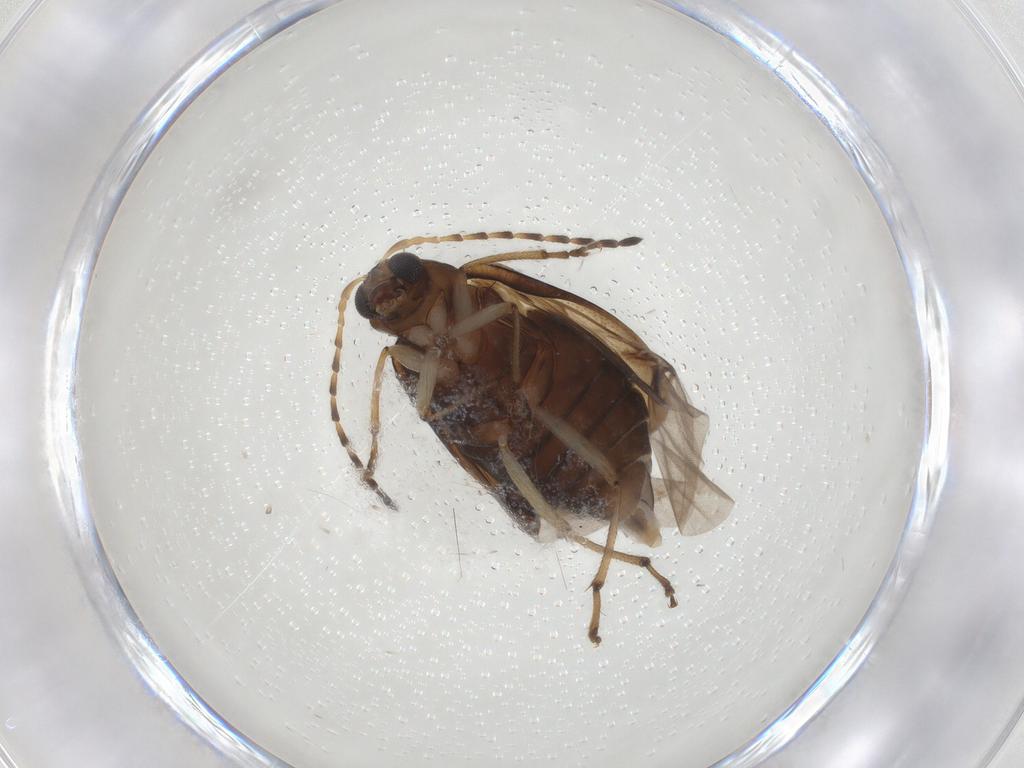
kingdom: Animalia
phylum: Arthropoda
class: Insecta
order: Coleoptera
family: Chrysomelidae
